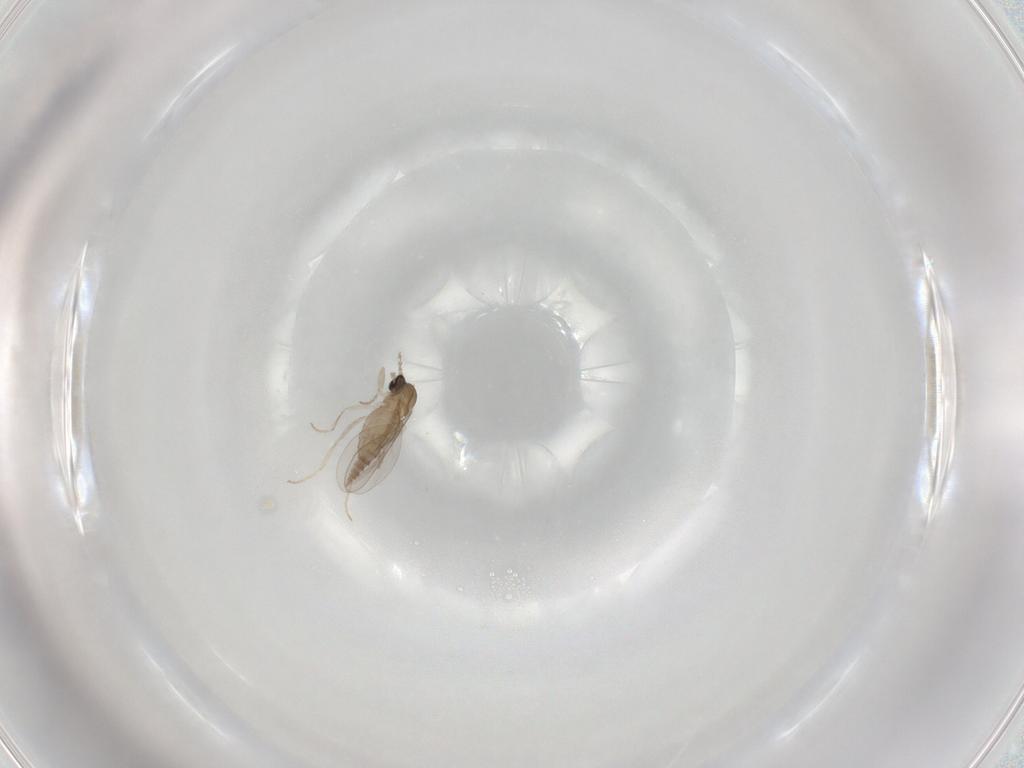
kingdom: Animalia
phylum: Arthropoda
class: Insecta
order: Diptera
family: Cecidomyiidae
